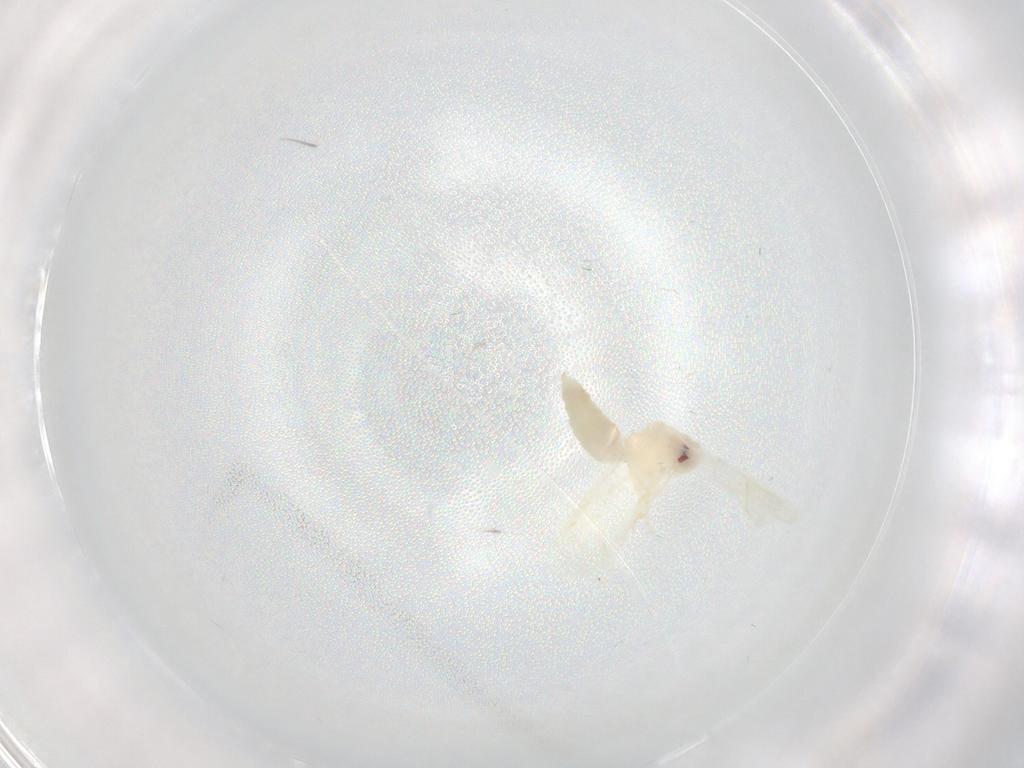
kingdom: Animalia
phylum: Arthropoda
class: Insecta
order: Hemiptera
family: Aleyrodidae
